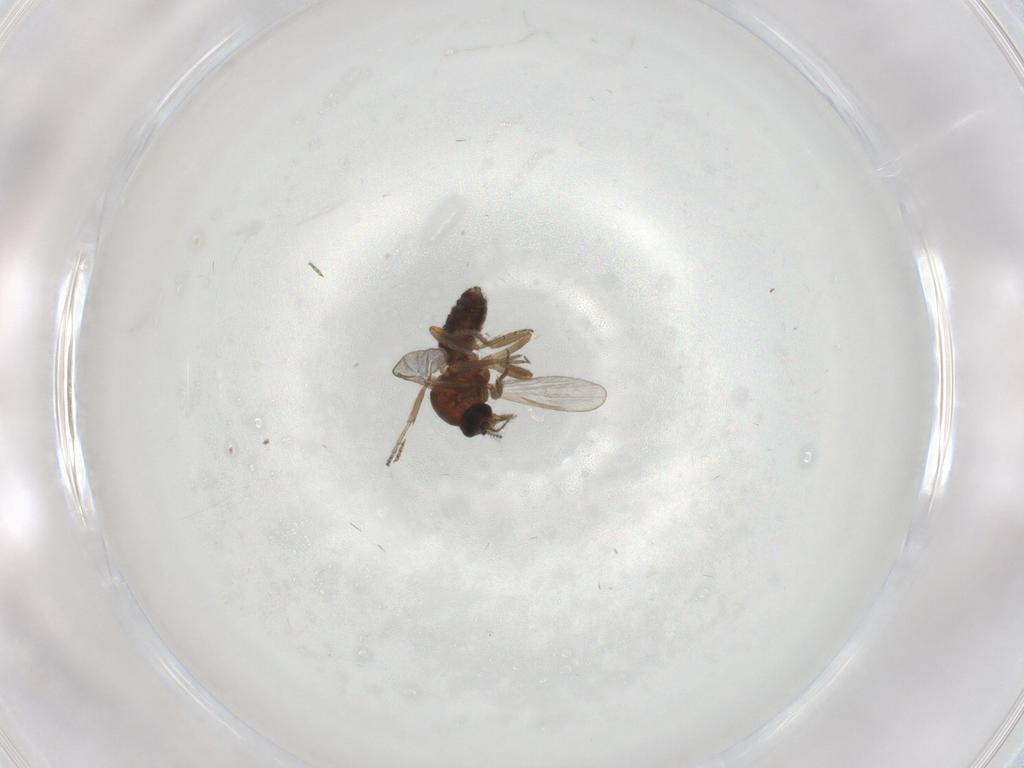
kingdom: Animalia
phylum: Arthropoda
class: Insecta
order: Diptera
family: Ceratopogonidae
